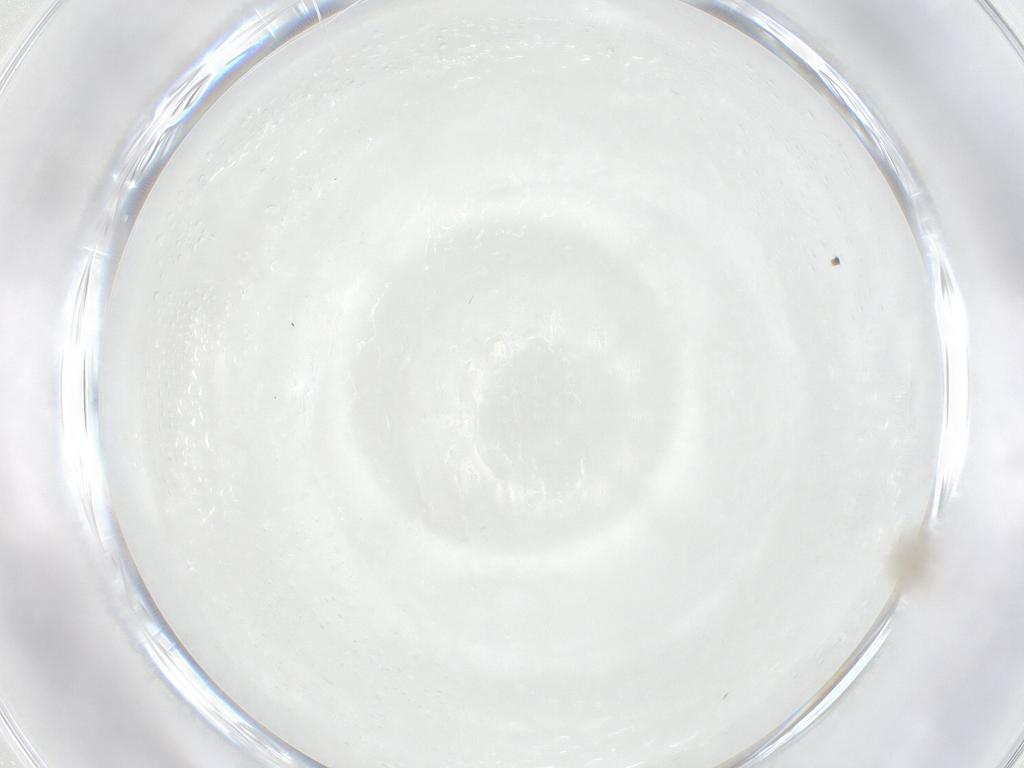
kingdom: Animalia
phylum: Arthropoda
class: Insecta
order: Diptera
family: Cecidomyiidae
